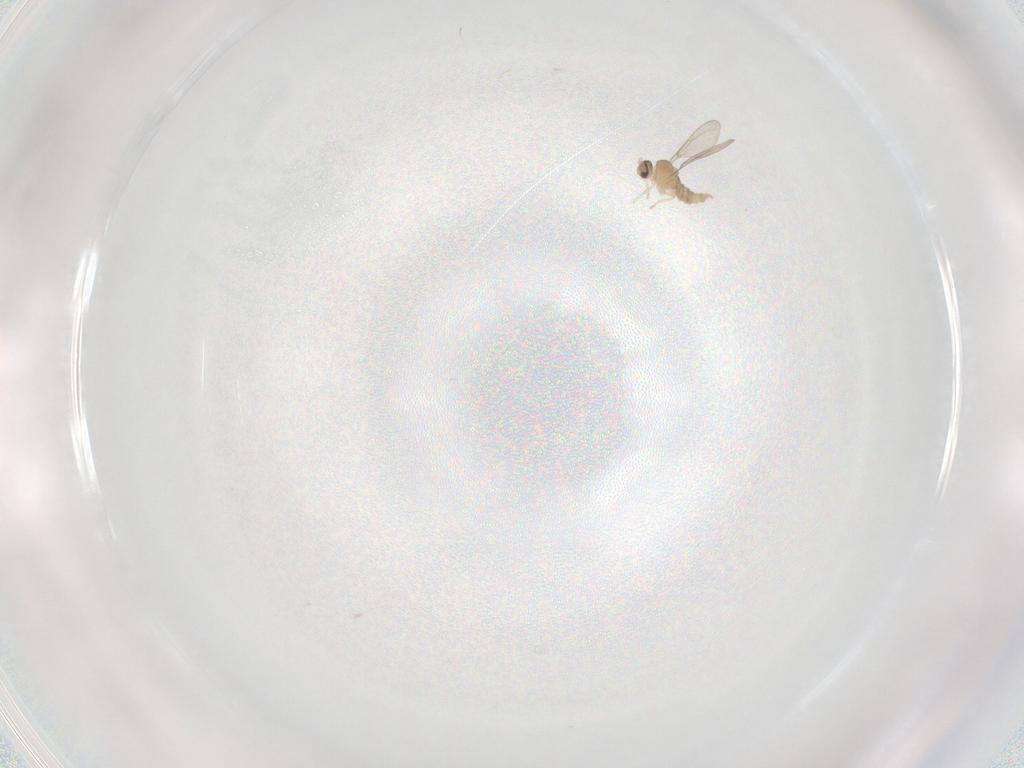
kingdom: Animalia
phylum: Arthropoda
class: Insecta
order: Diptera
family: Cecidomyiidae
